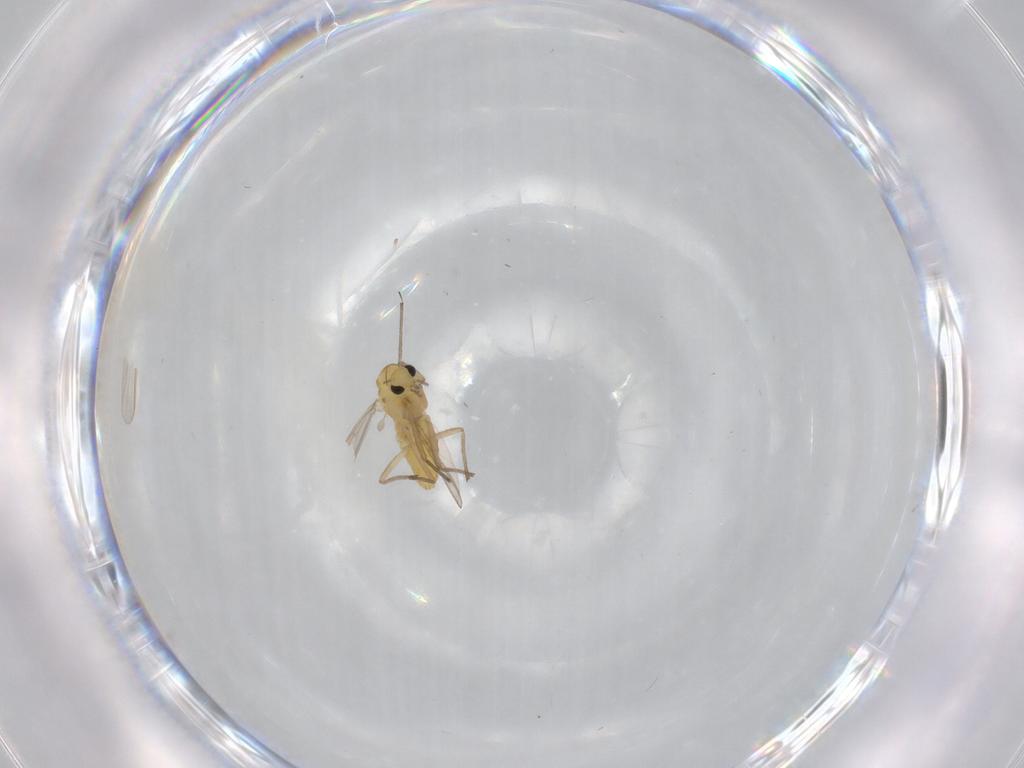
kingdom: Animalia
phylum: Arthropoda
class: Insecta
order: Diptera
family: Chironomidae
